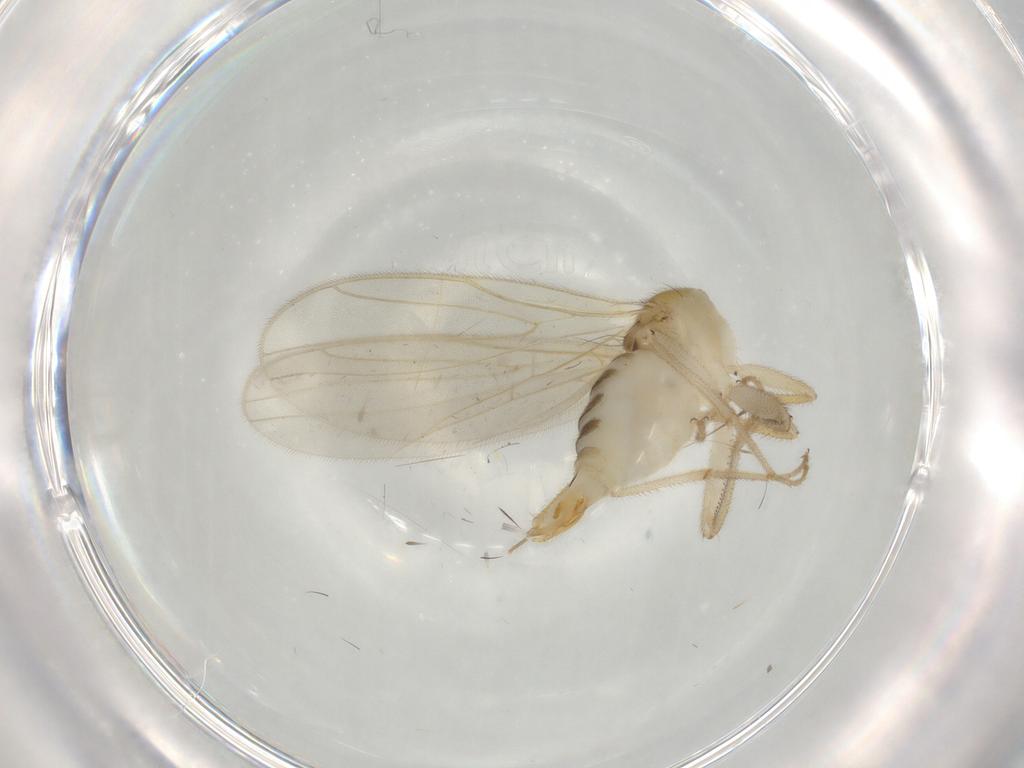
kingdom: Animalia
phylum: Arthropoda
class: Insecta
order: Diptera
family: Hybotidae
